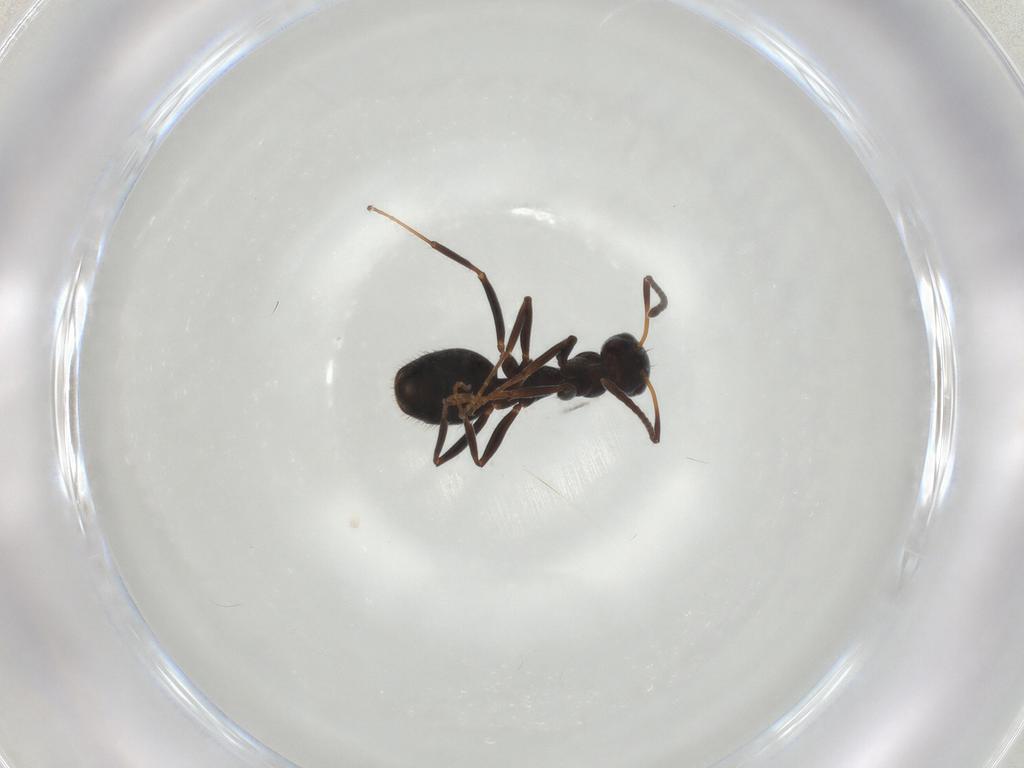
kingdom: Animalia
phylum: Arthropoda
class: Insecta
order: Hymenoptera
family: Formicidae
